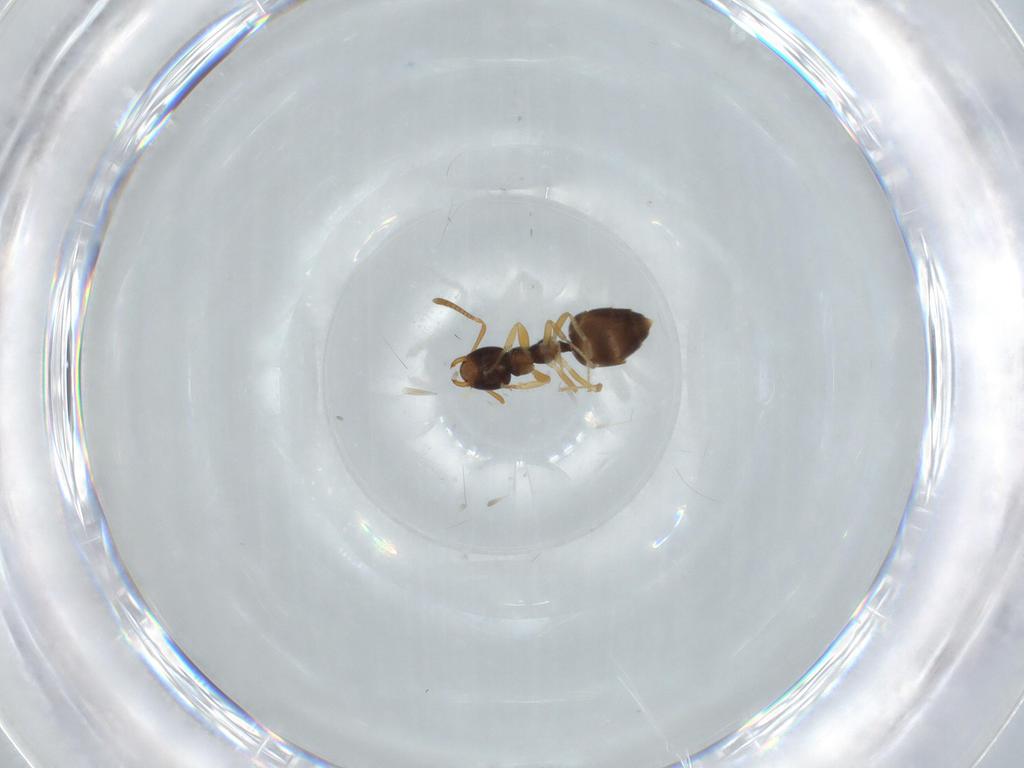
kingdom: Animalia
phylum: Arthropoda
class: Insecta
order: Hymenoptera
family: Formicidae
